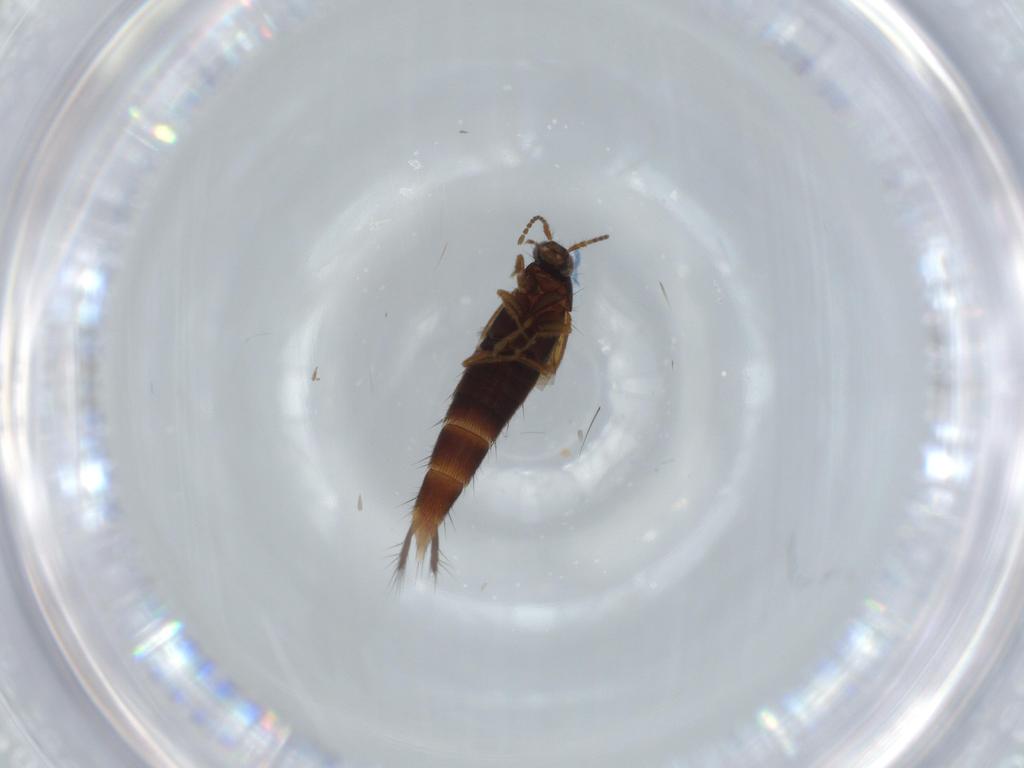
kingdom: Animalia
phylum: Arthropoda
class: Insecta
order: Coleoptera
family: Staphylinidae
